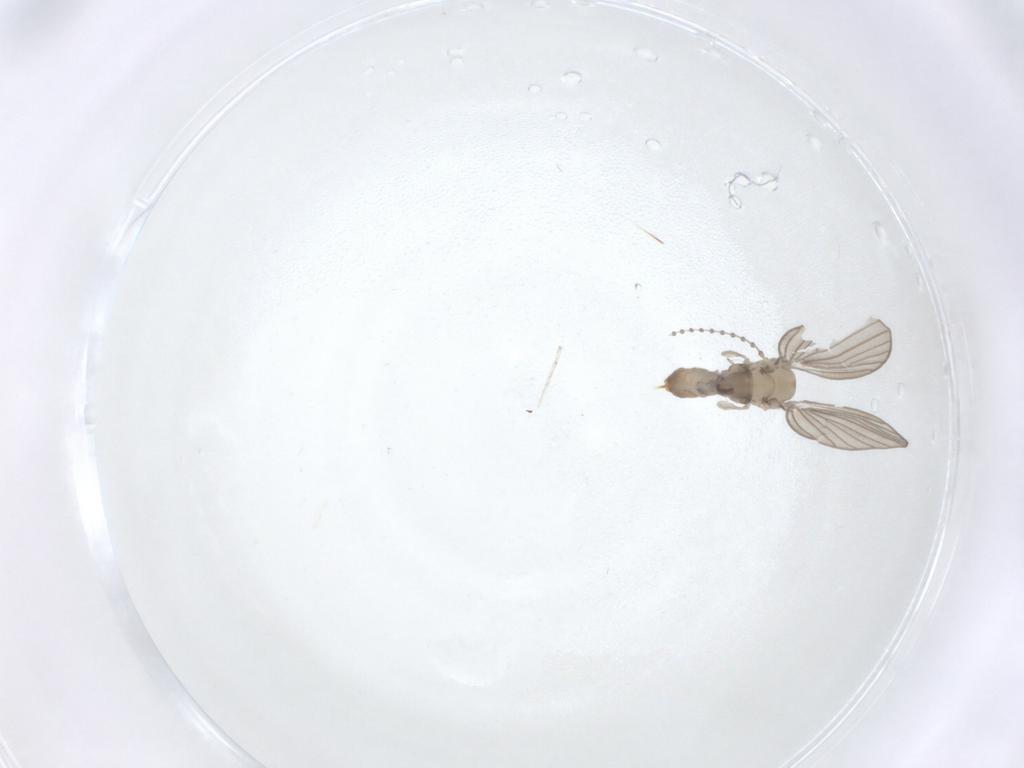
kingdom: Animalia
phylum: Arthropoda
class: Insecta
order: Diptera
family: Psychodidae
